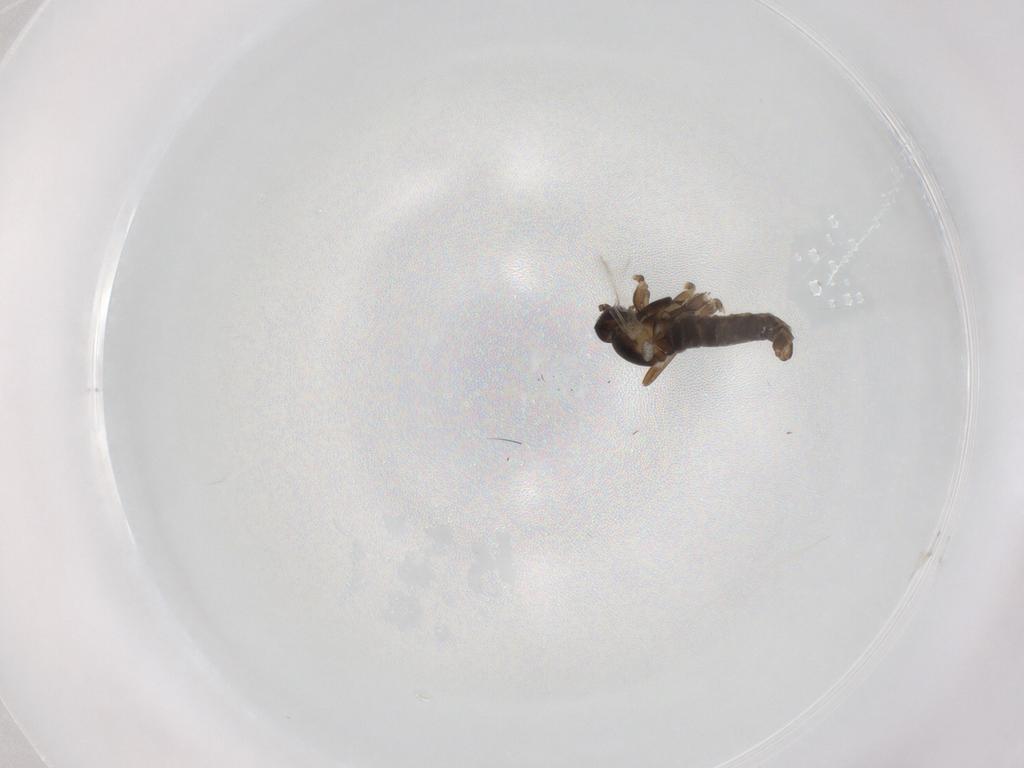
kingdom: Animalia
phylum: Arthropoda
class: Insecta
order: Diptera
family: Cecidomyiidae
